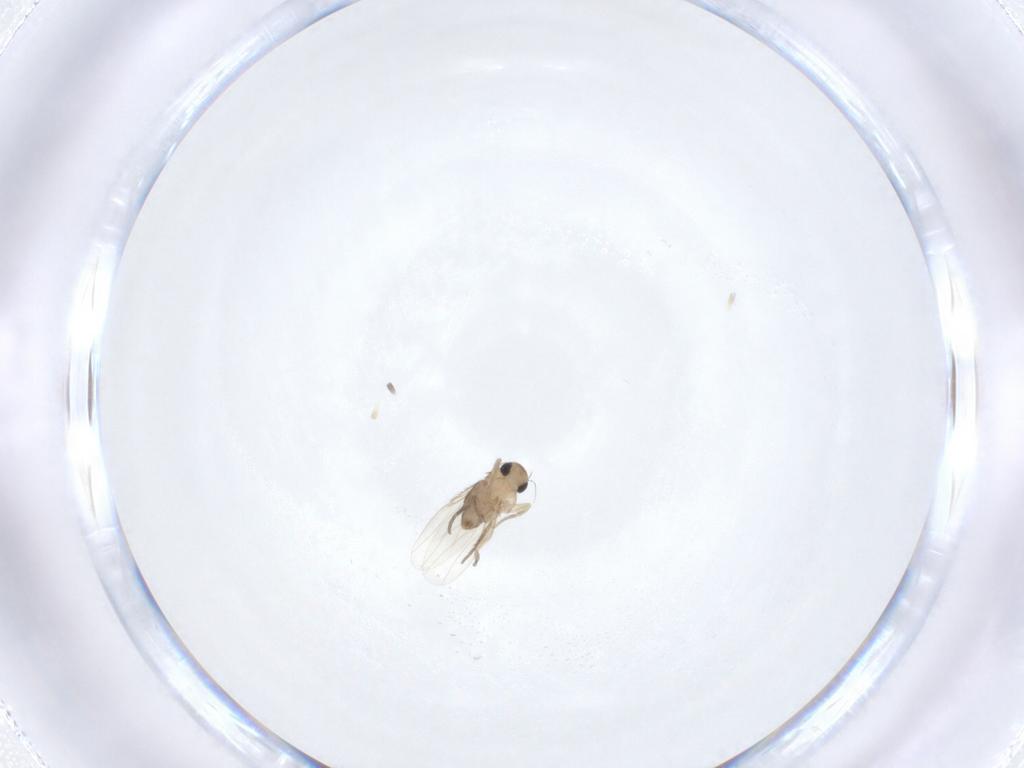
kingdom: Animalia
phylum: Arthropoda
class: Insecta
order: Diptera
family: Phoridae
